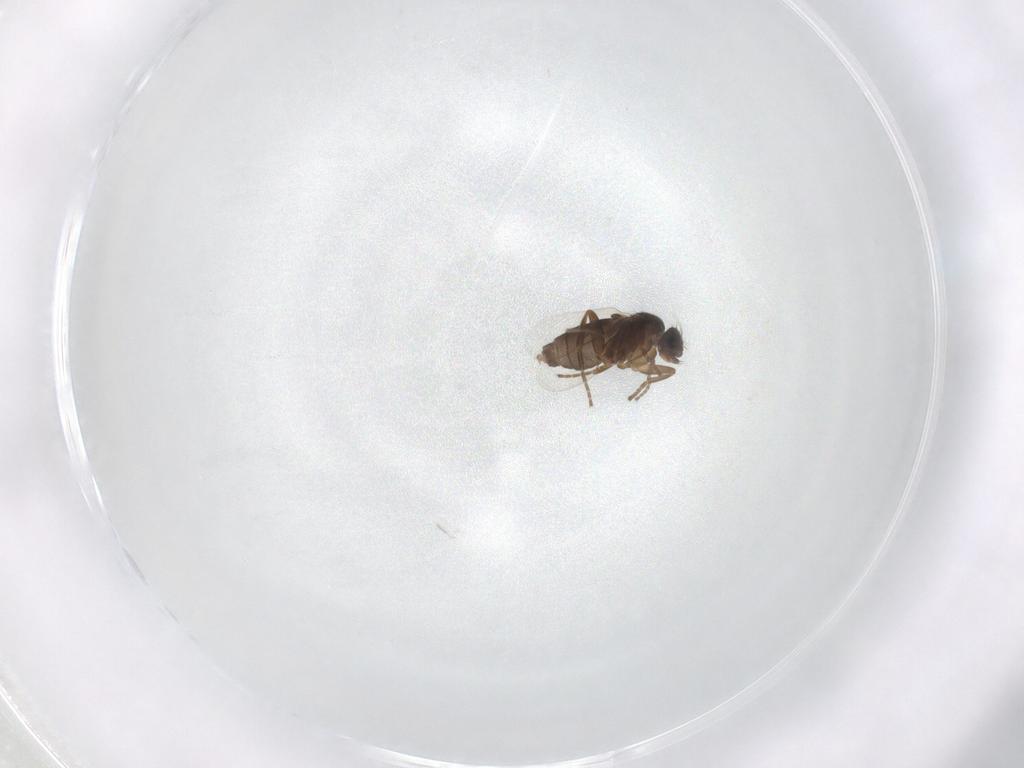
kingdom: Animalia
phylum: Arthropoda
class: Insecta
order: Diptera
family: Phoridae
